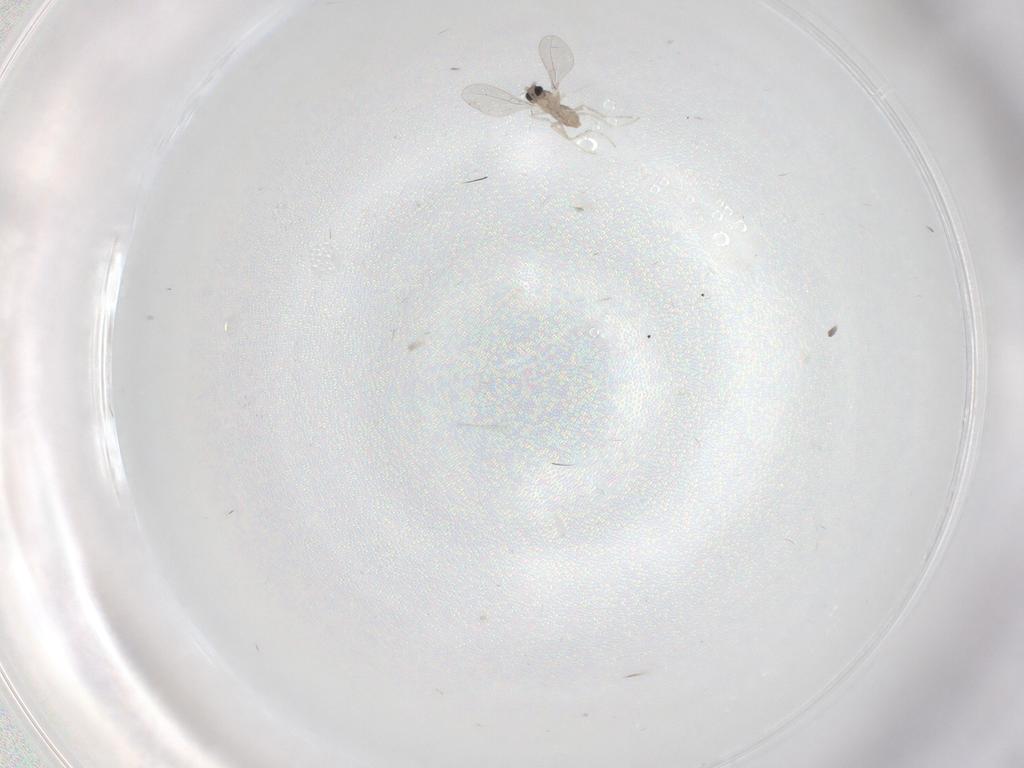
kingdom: Animalia
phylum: Arthropoda
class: Insecta
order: Diptera
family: Cecidomyiidae
